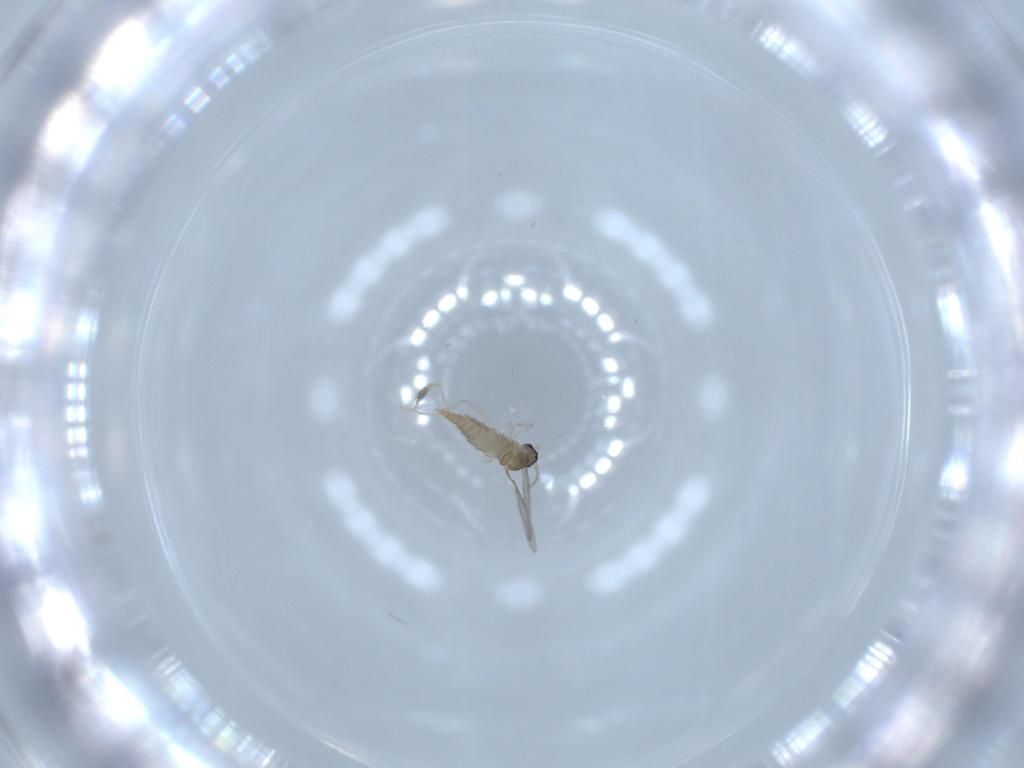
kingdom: Animalia
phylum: Arthropoda
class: Insecta
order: Diptera
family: Cecidomyiidae
